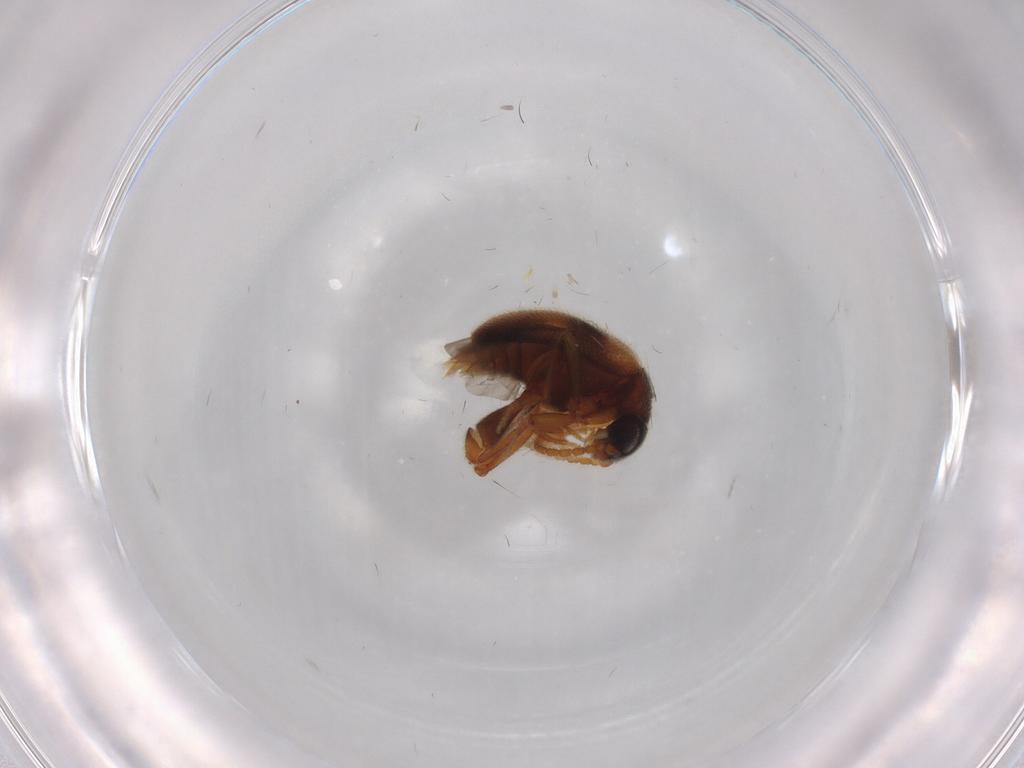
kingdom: Animalia
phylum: Arthropoda
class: Insecta
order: Coleoptera
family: Aderidae
